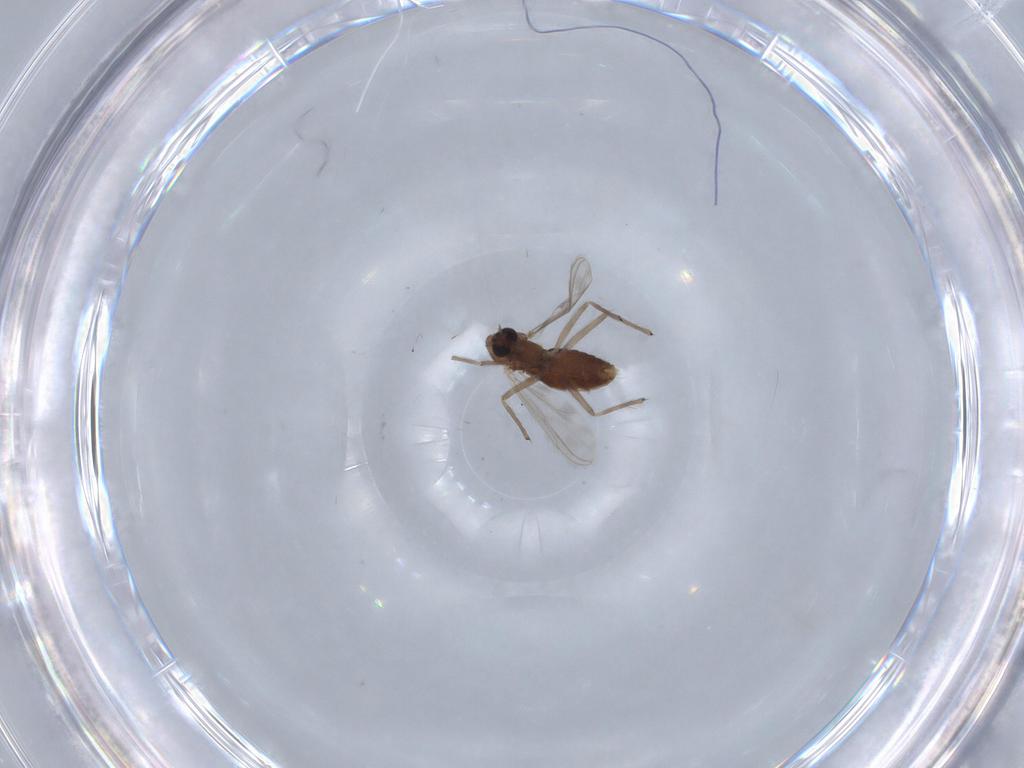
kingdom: Animalia
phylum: Arthropoda
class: Insecta
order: Diptera
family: Chironomidae
